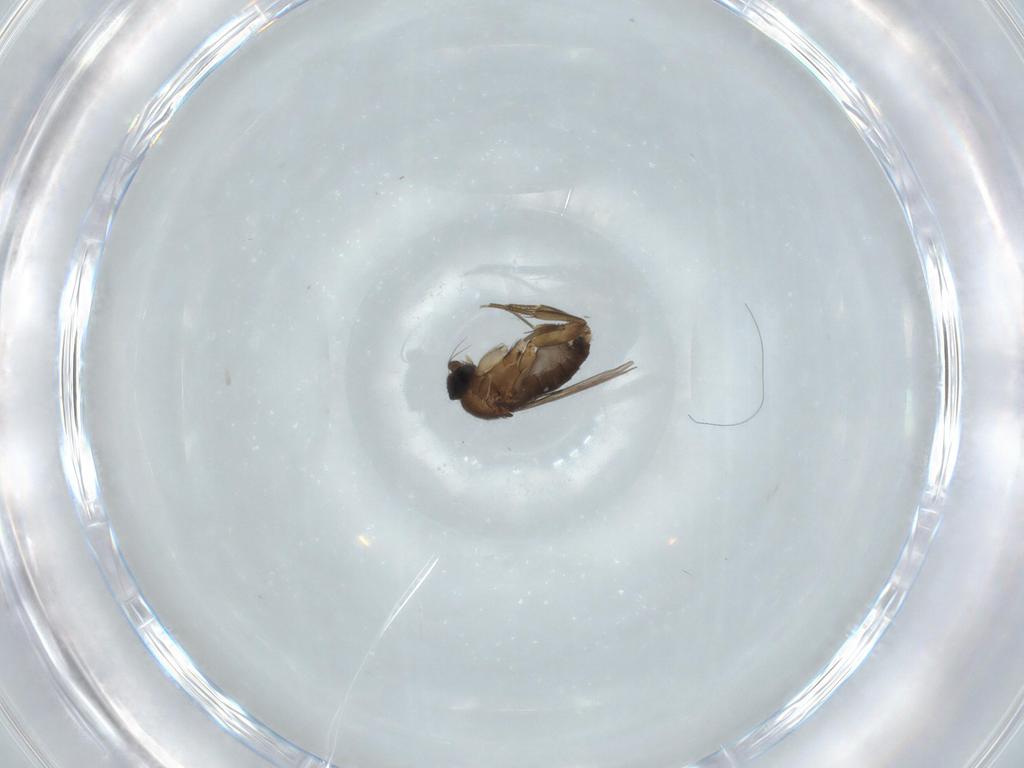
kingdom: Animalia
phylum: Arthropoda
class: Insecta
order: Diptera
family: Phoridae
